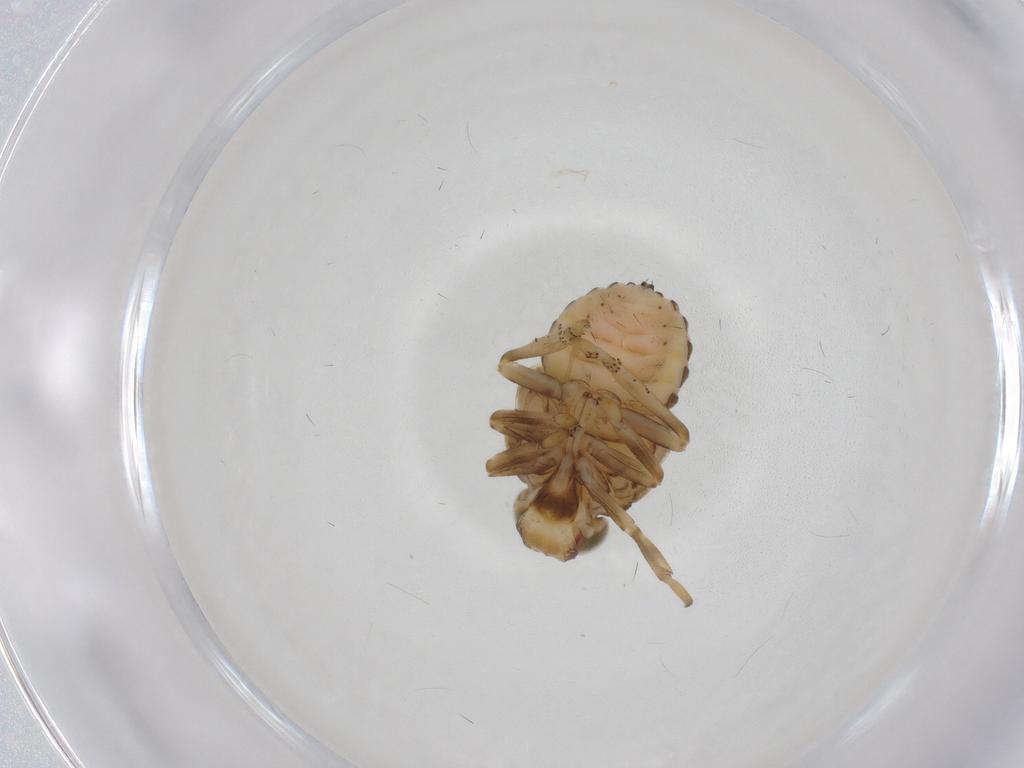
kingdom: Animalia
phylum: Arthropoda
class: Insecta
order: Hemiptera
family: Issidae
